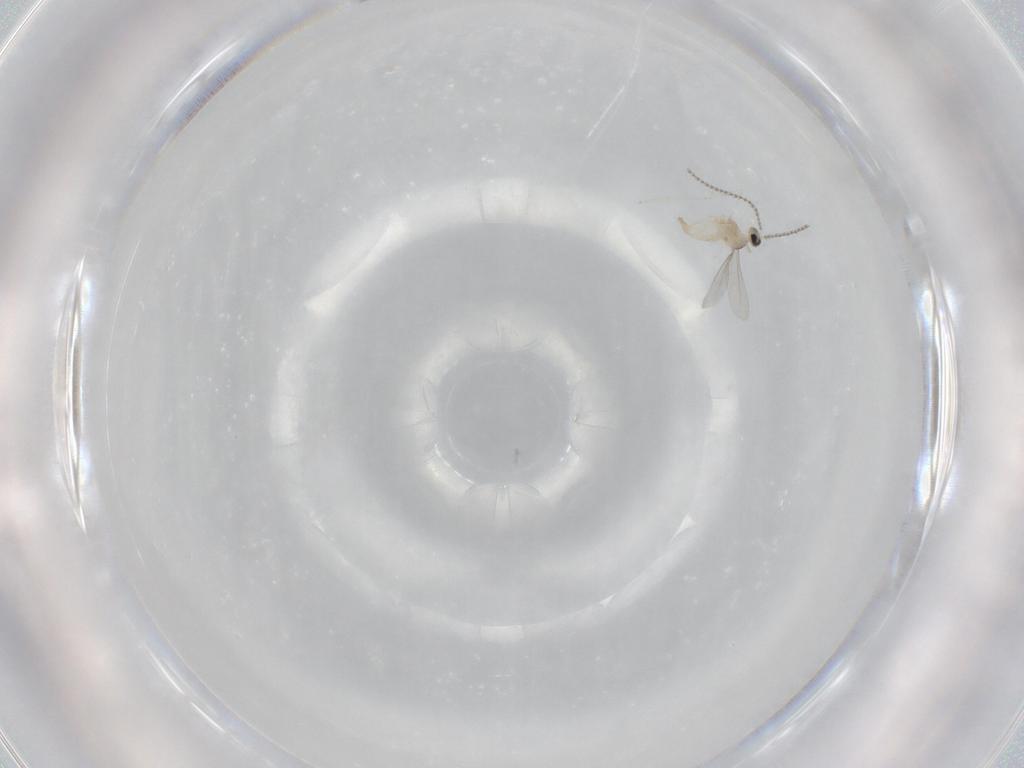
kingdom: Animalia
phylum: Arthropoda
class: Insecta
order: Diptera
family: Cecidomyiidae
